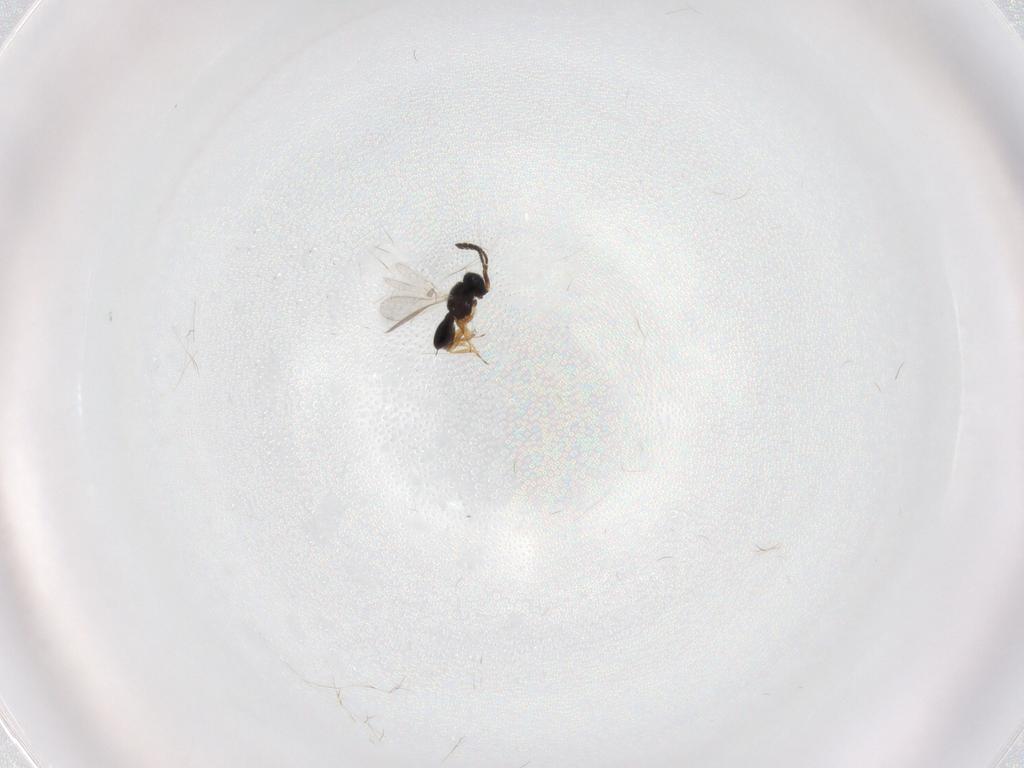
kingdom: Animalia
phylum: Arthropoda
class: Insecta
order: Hymenoptera
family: Scelionidae
